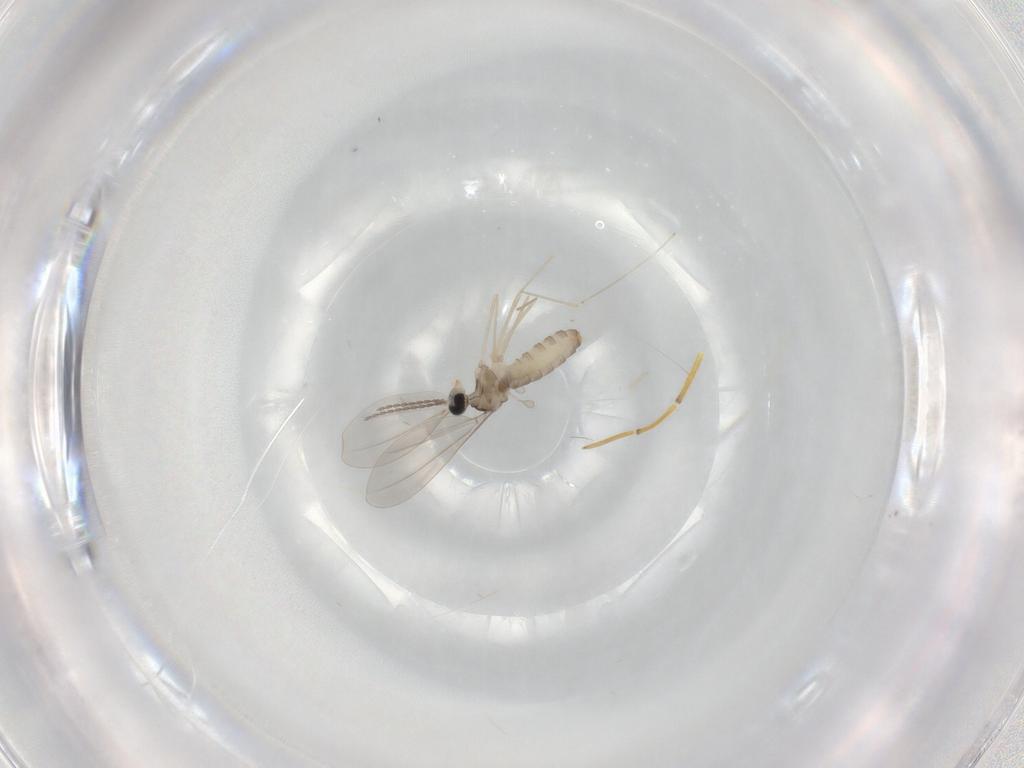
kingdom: Animalia
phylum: Arthropoda
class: Insecta
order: Diptera
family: Cecidomyiidae
